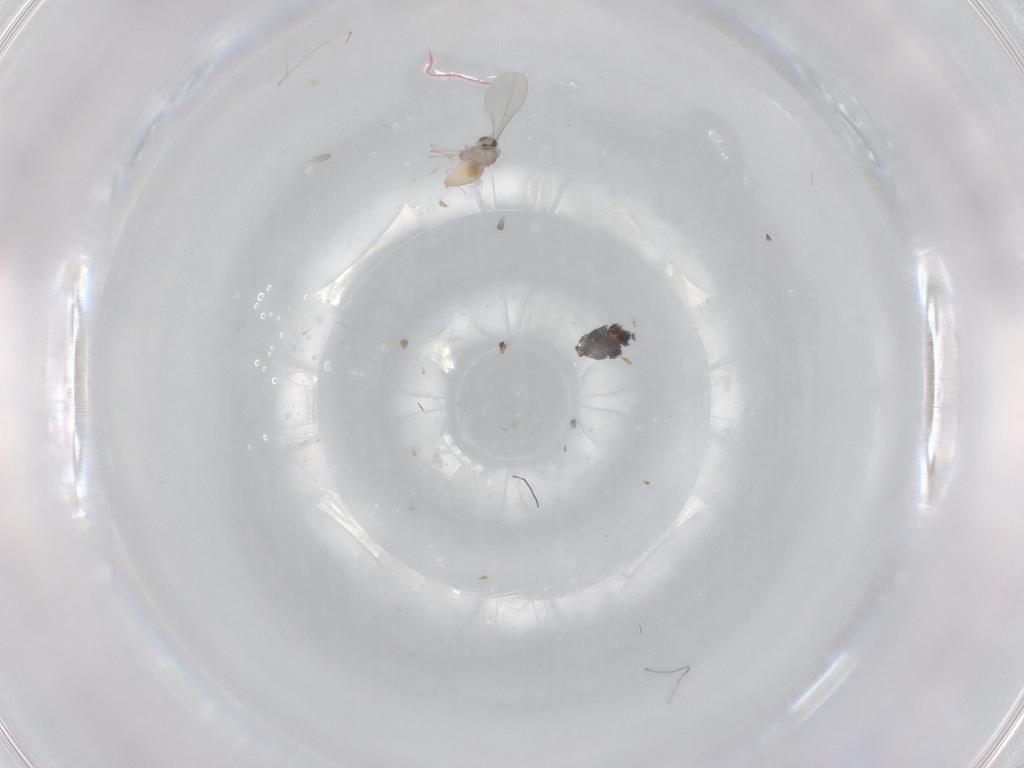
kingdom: Animalia
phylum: Arthropoda
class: Insecta
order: Diptera
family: Cecidomyiidae
